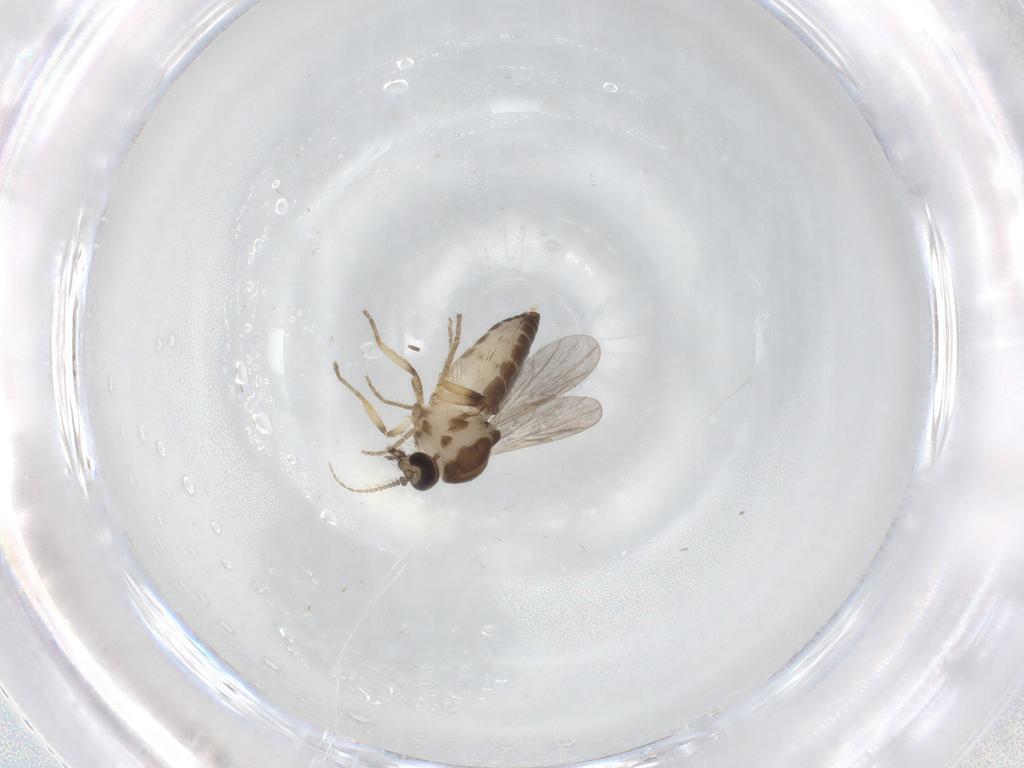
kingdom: Animalia
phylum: Arthropoda
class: Insecta
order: Diptera
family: Ceratopogonidae
